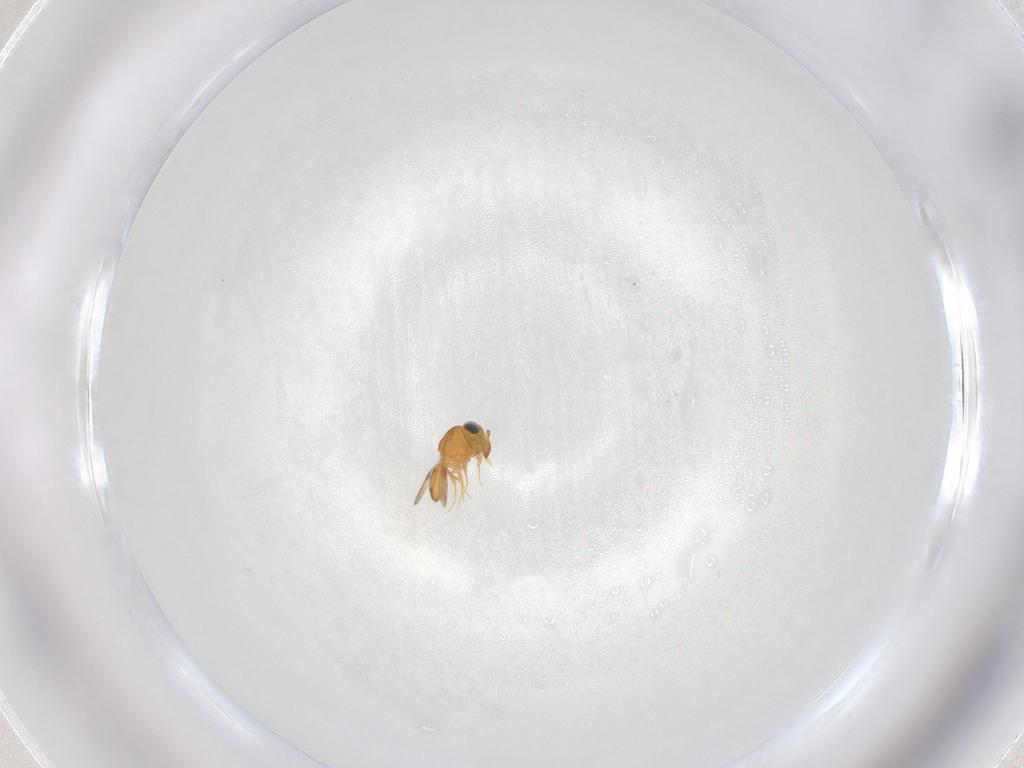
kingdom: Animalia
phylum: Arthropoda
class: Insecta
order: Hymenoptera
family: Scelionidae
